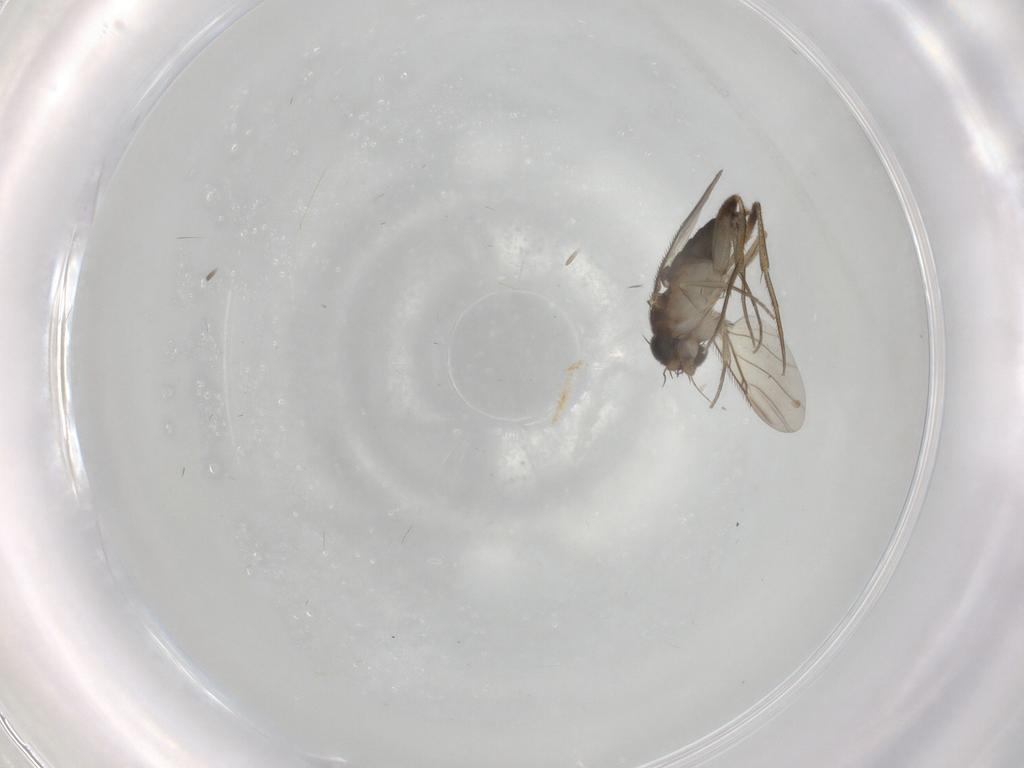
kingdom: Animalia
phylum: Arthropoda
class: Insecta
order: Diptera
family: Phoridae
